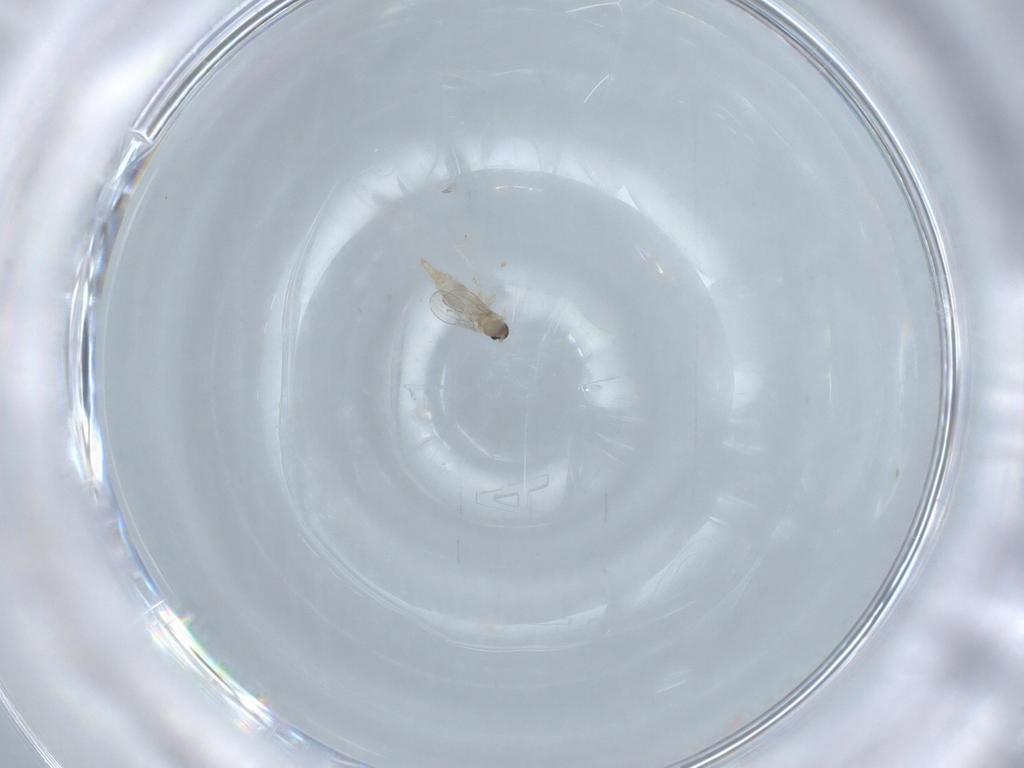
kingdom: Animalia
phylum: Arthropoda
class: Insecta
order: Diptera
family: Cecidomyiidae
